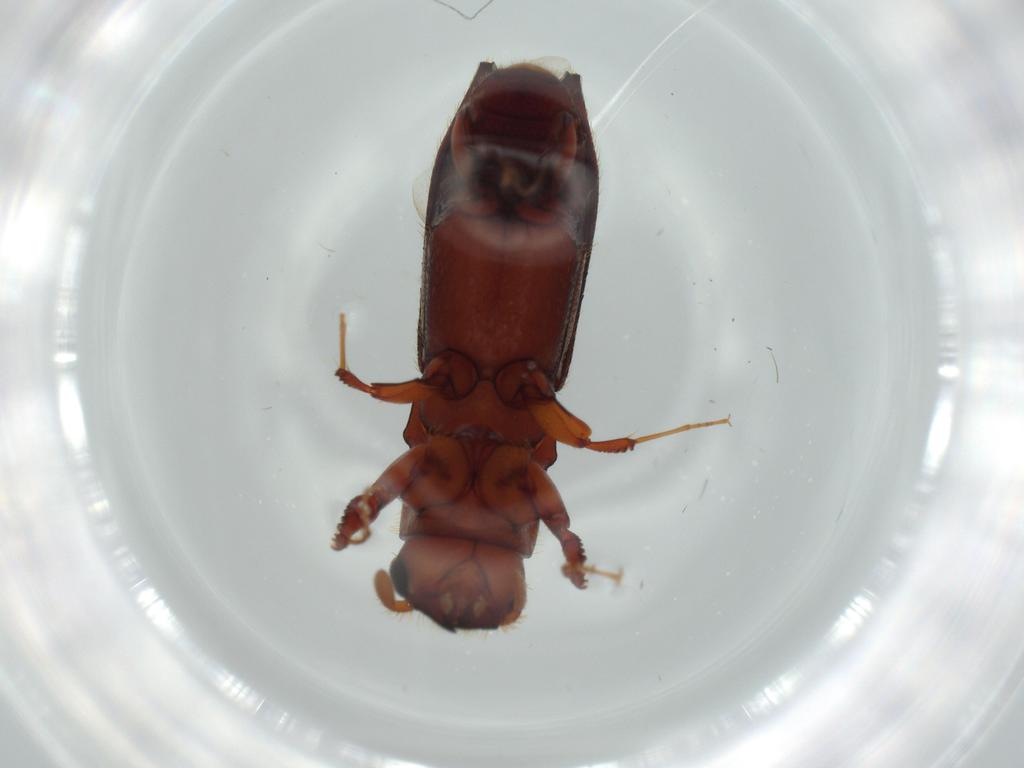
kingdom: Animalia
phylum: Arthropoda
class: Insecta
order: Coleoptera
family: Curculionidae
